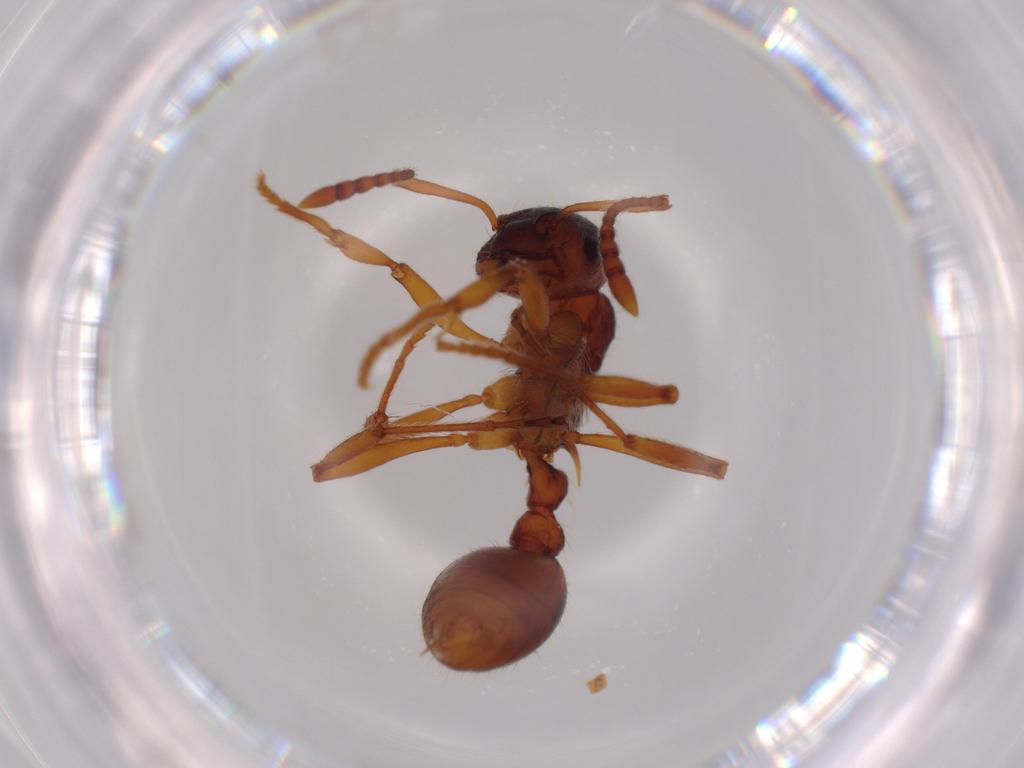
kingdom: Animalia
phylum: Arthropoda
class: Insecta
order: Hymenoptera
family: Formicidae
